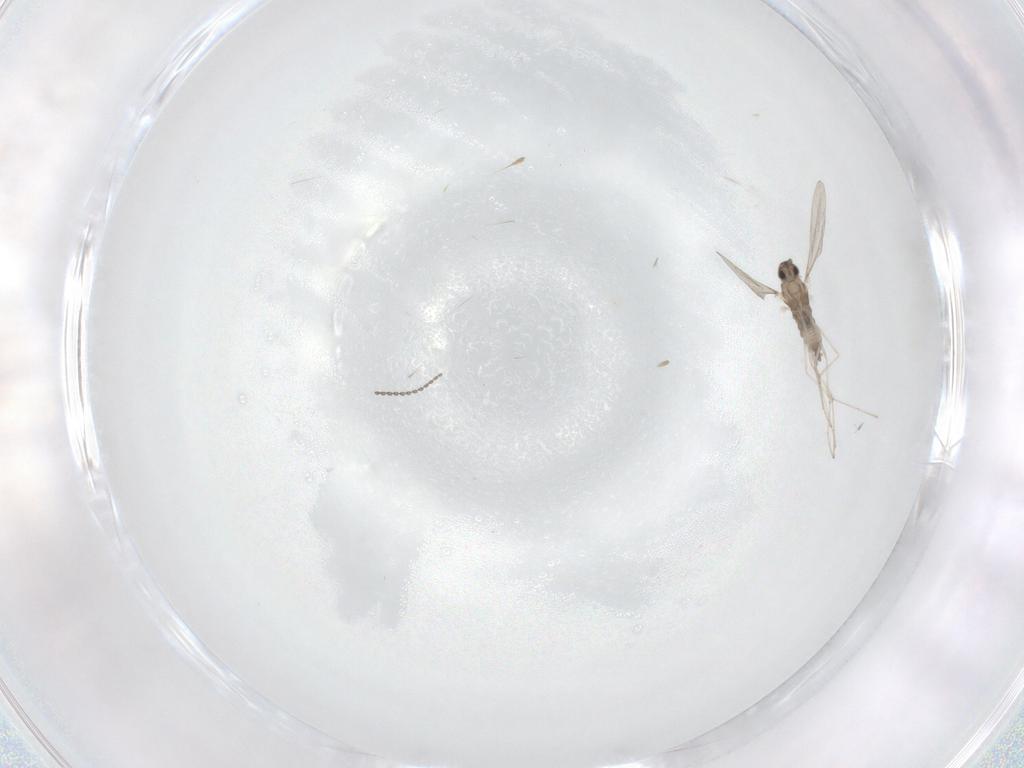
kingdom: Animalia
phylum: Arthropoda
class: Insecta
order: Diptera
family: Cecidomyiidae
